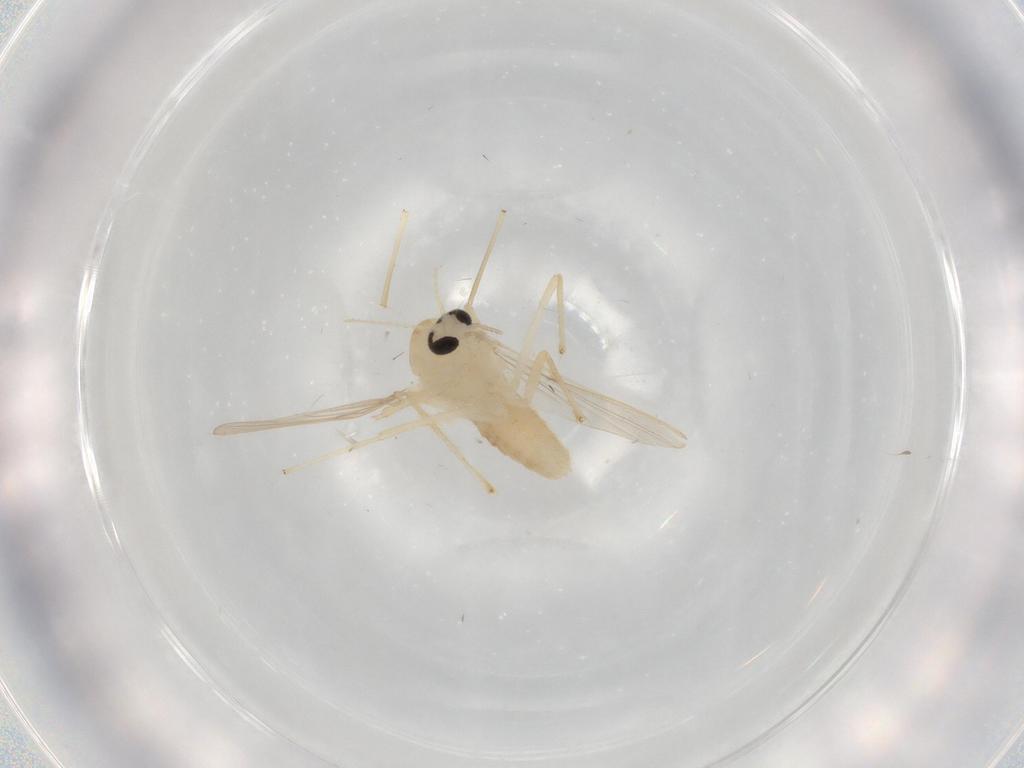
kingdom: Animalia
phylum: Arthropoda
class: Insecta
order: Diptera
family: Chironomidae
